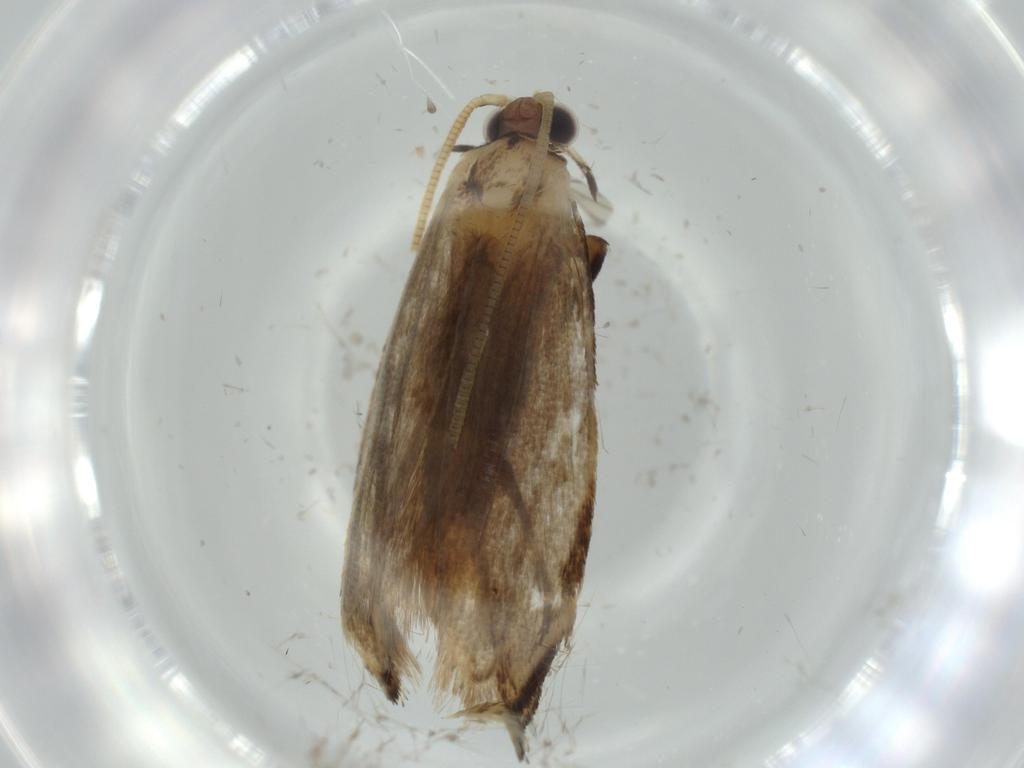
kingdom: Animalia
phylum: Arthropoda
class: Insecta
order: Lepidoptera
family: Tineidae
